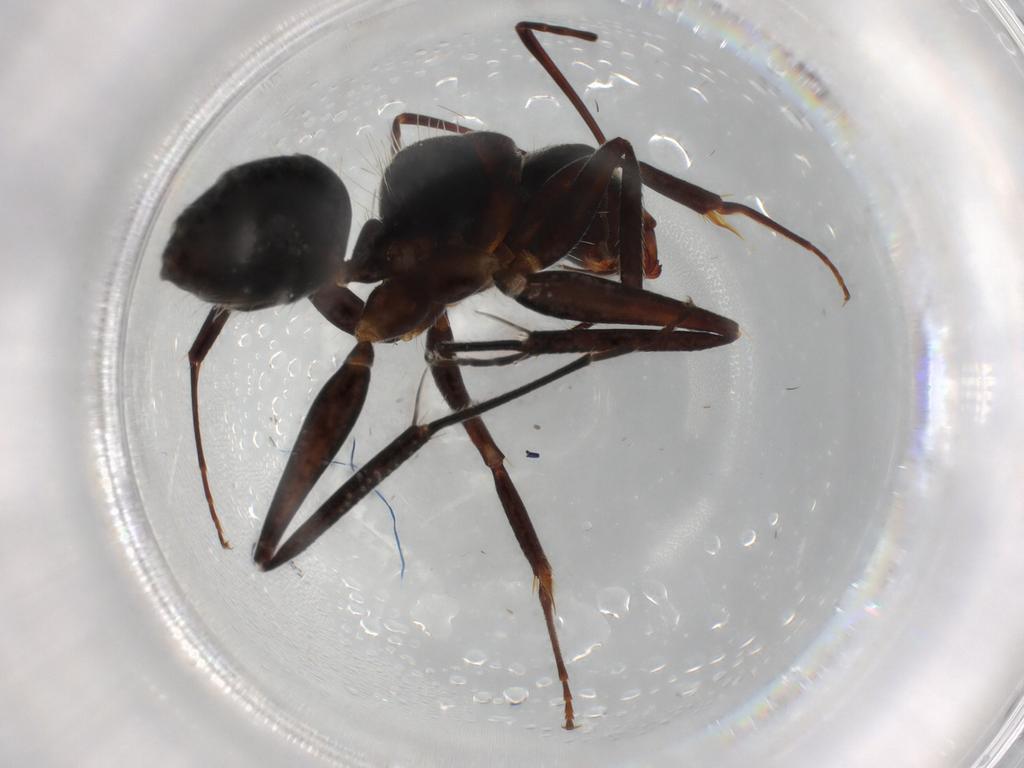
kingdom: Animalia
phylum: Arthropoda
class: Insecta
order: Hymenoptera
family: Formicidae
